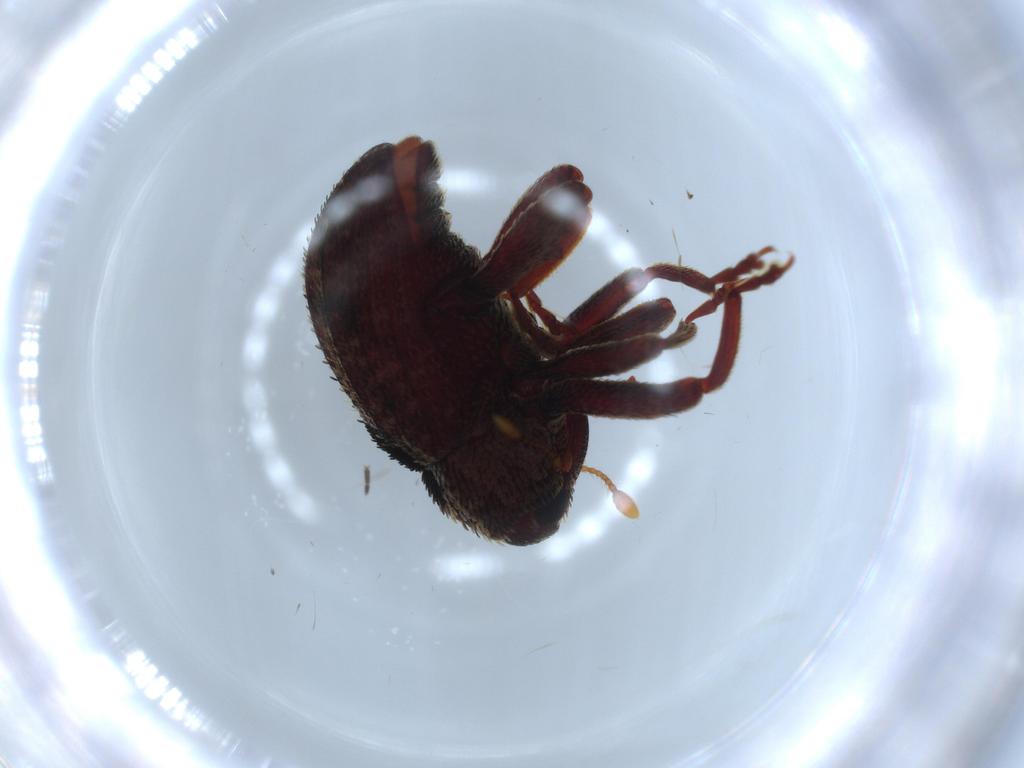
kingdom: Animalia
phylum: Arthropoda
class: Insecta
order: Coleoptera
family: Curculionidae
